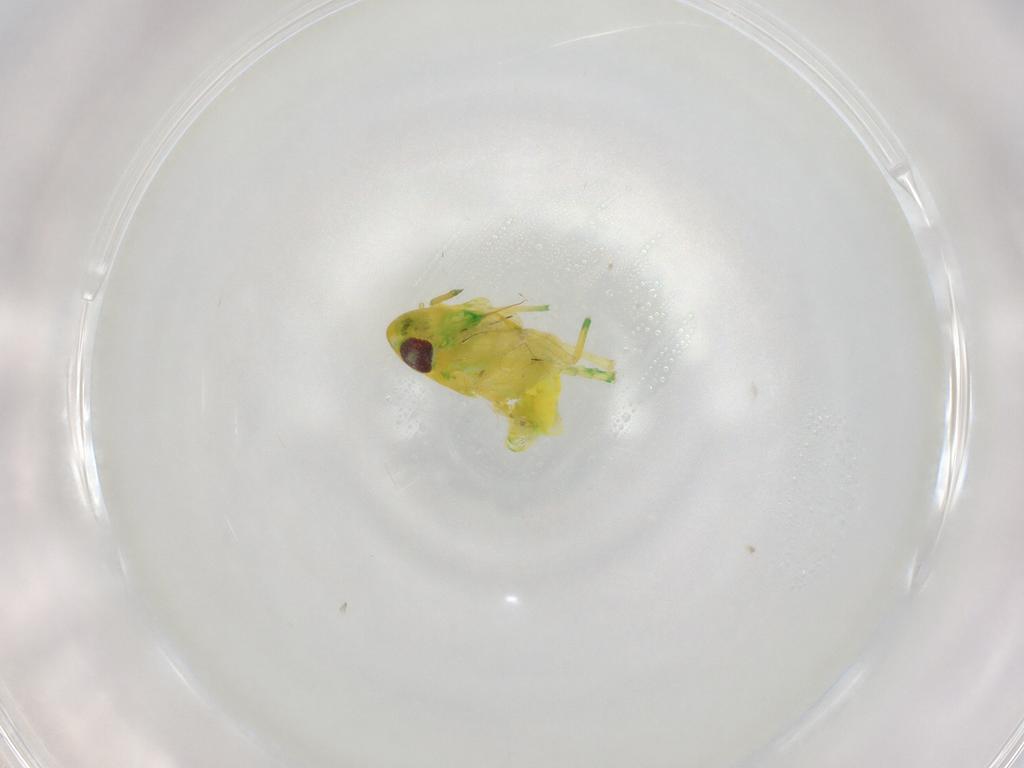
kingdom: Animalia
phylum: Arthropoda
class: Insecta
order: Hemiptera
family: Cicadellidae
